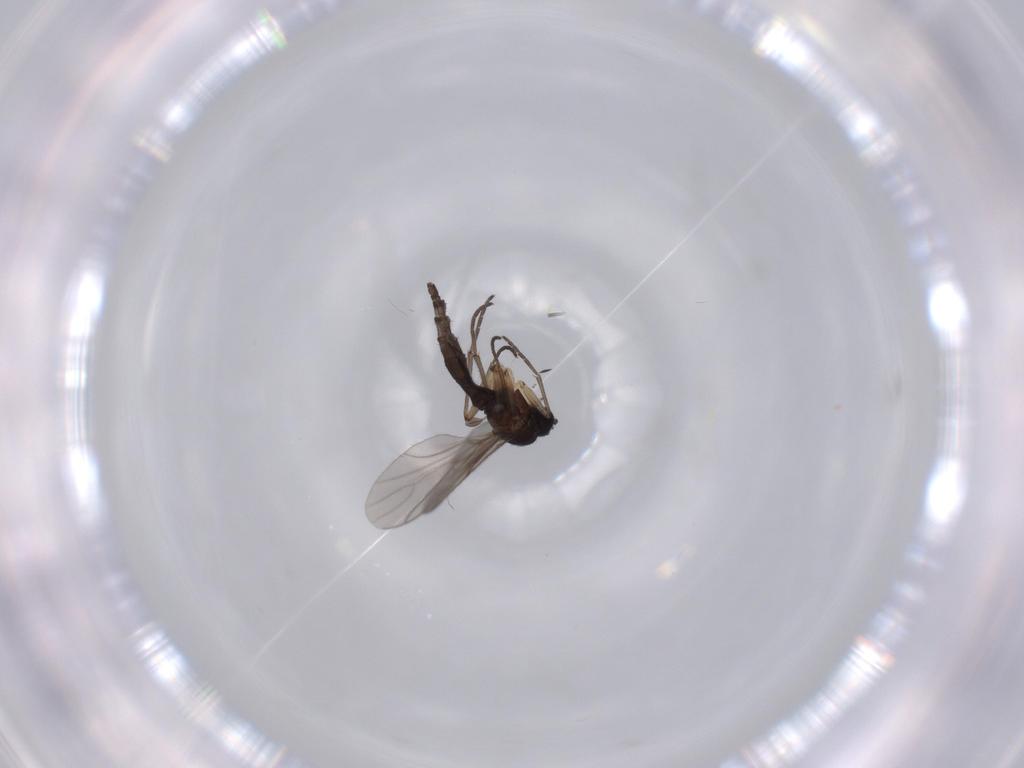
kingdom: Animalia
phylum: Arthropoda
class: Insecta
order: Diptera
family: Sciaridae
